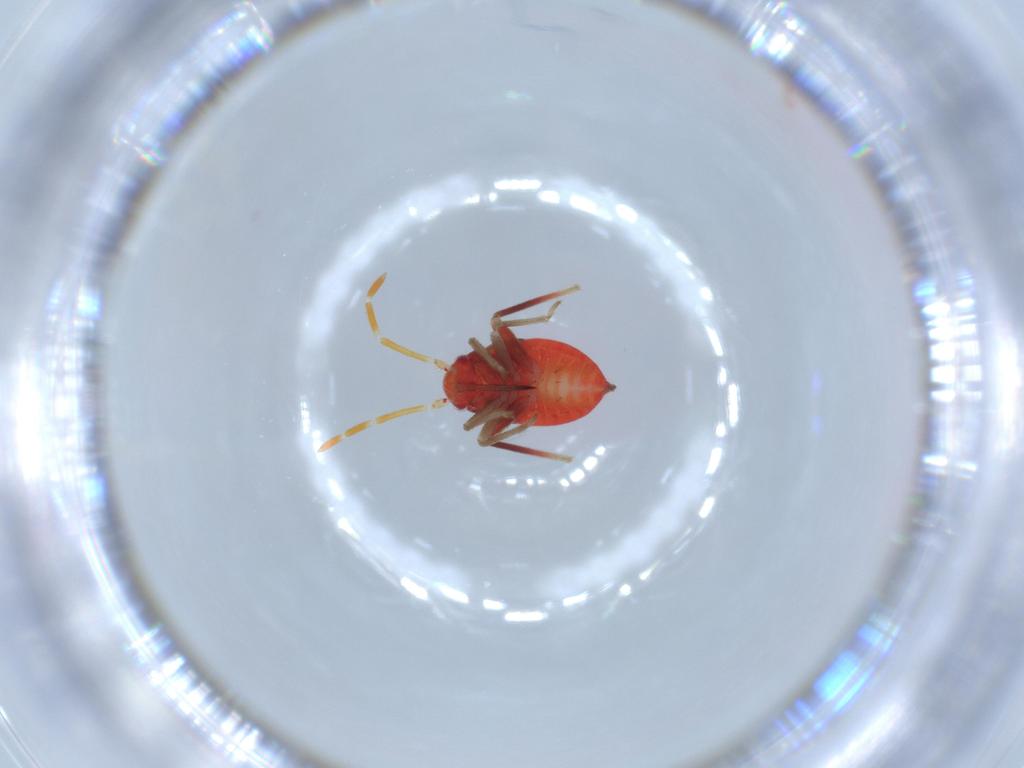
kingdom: Animalia
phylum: Arthropoda
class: Insecta
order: Hemiptera
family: Miridae
